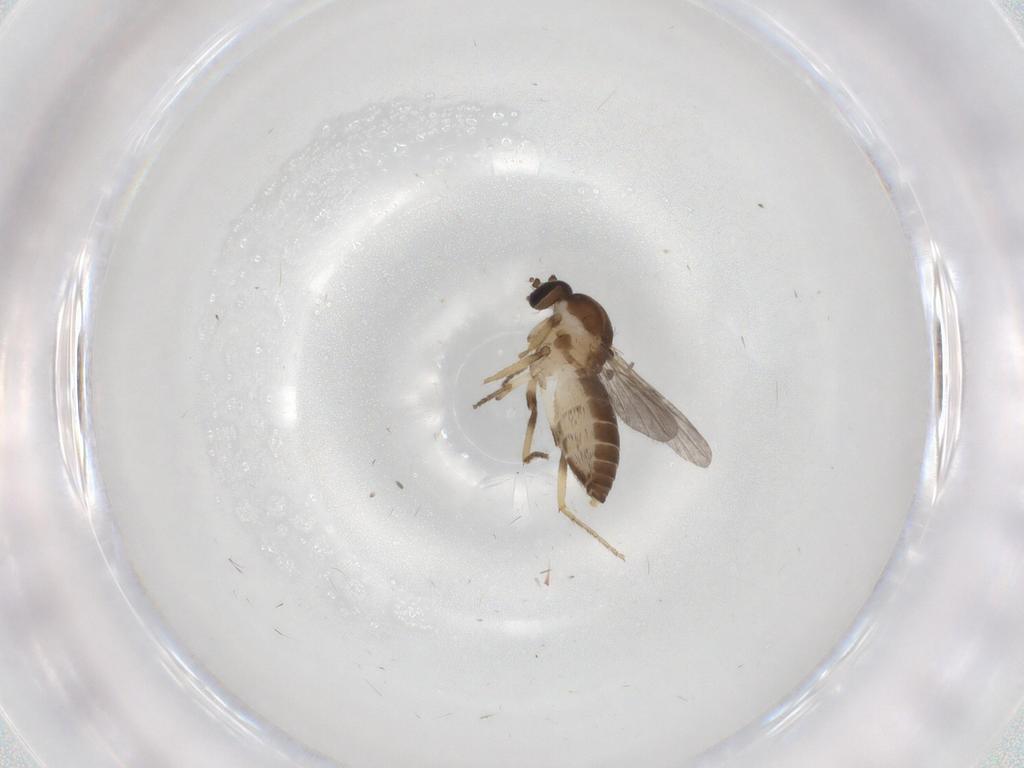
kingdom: Animalia
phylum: Arthropoda
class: Insecta
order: Diptera
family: Ceratopogonidae
